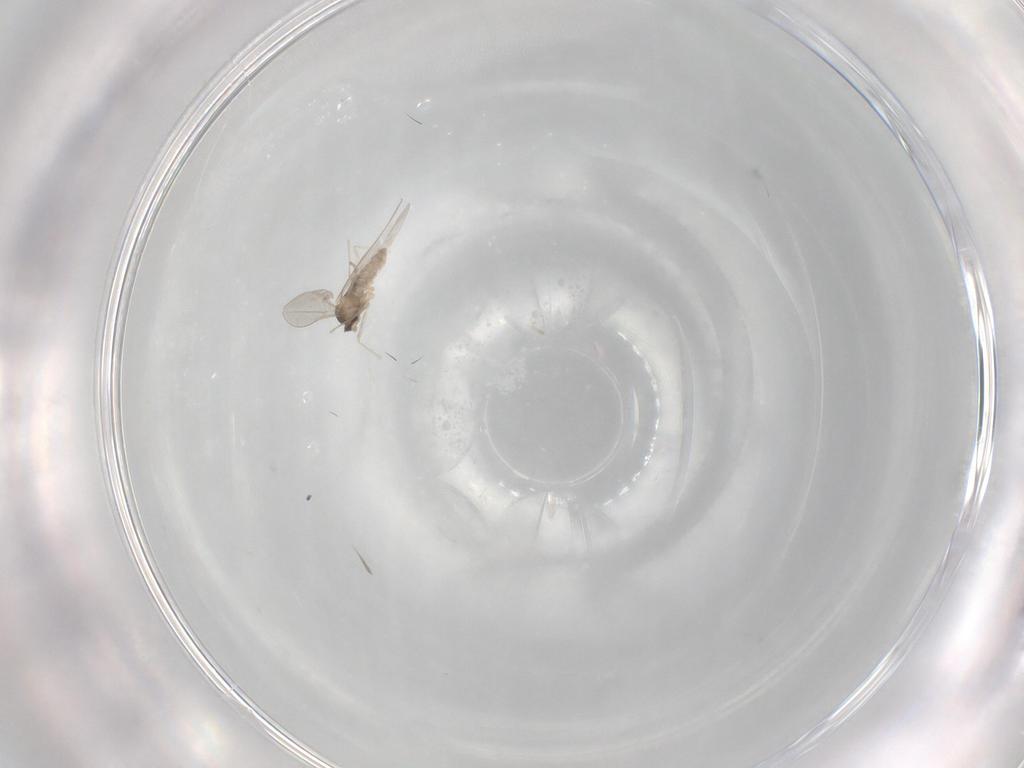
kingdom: Animalia
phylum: Arthropoda
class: Insecta
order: Diptera
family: Cecidomyiidae
